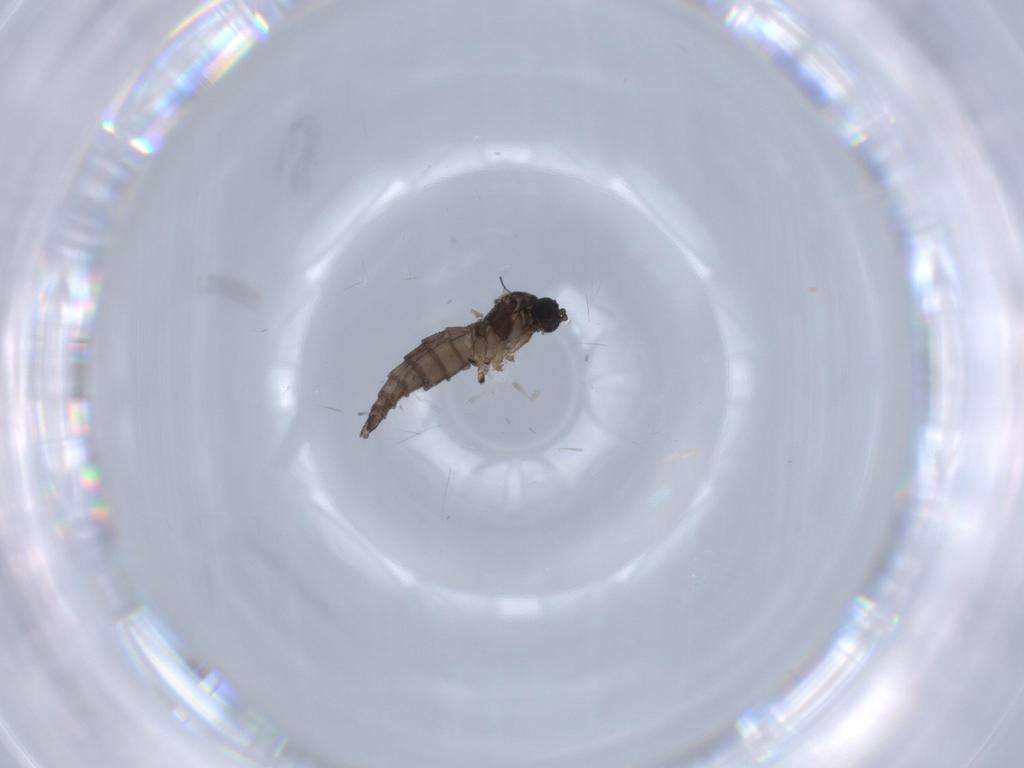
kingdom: Animalia
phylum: Arthropoda
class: Insecta
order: Diptera
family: Sciaridae
